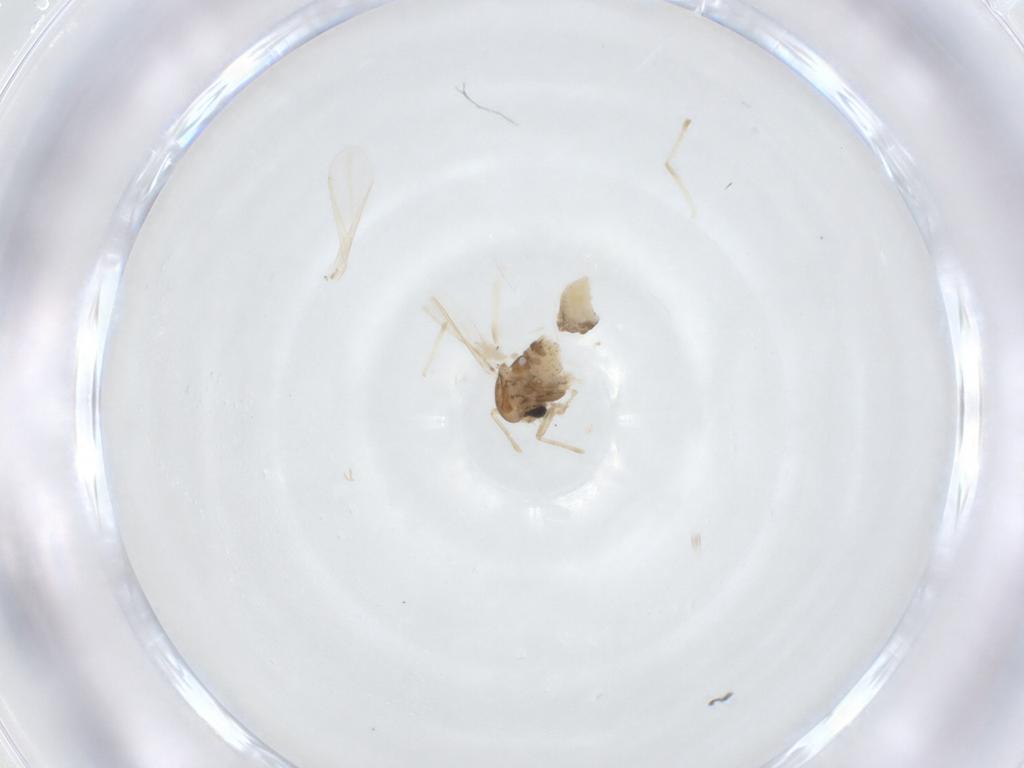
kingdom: Animalia
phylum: Arthropoda
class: Insecta
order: Diptera
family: Chironomidae
